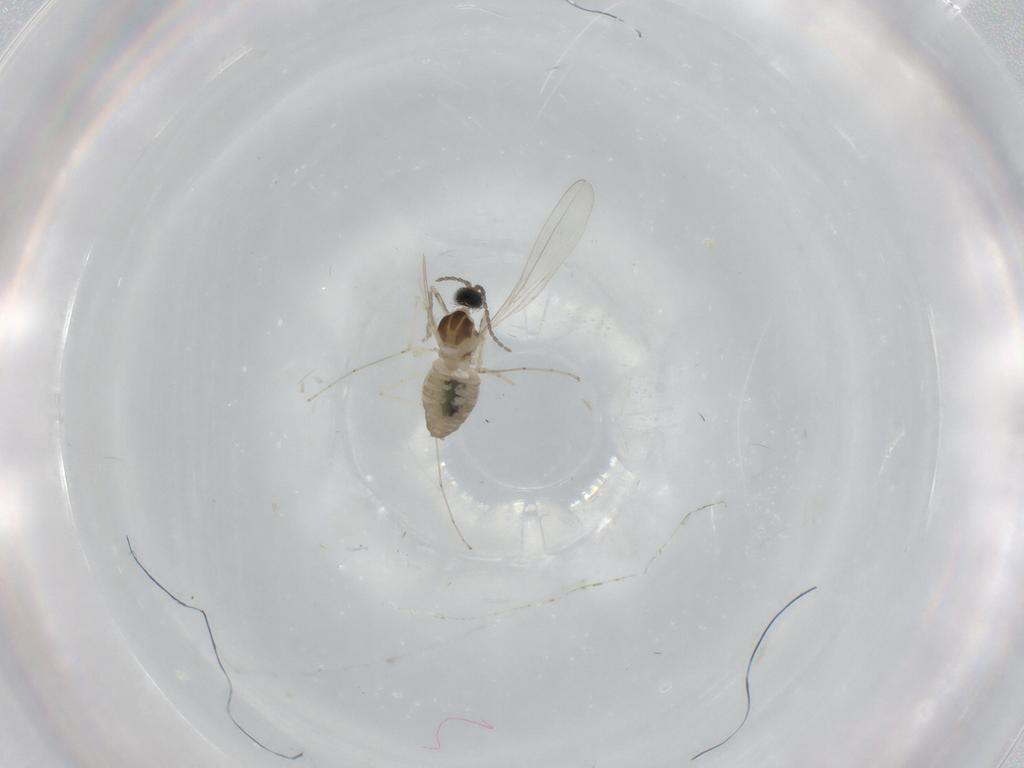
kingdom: Animalia
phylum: Arthropoda
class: Insecta
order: Diptera
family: Cecidomyiidae
